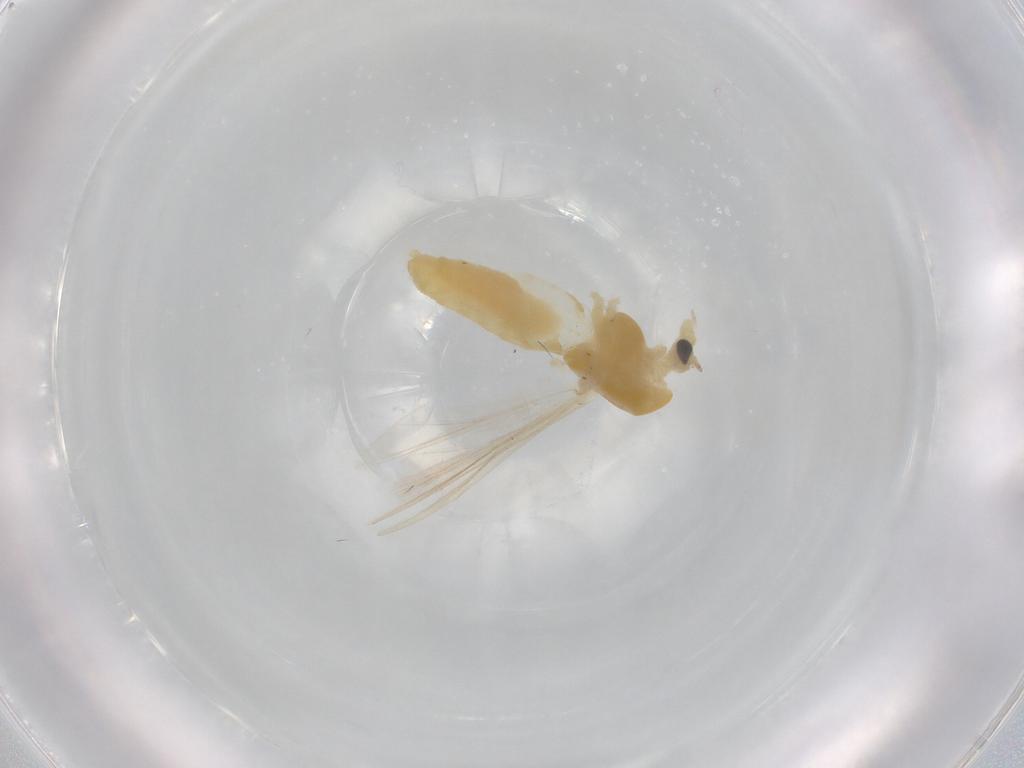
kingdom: Animalia
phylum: Arthropoda
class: Insecta
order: Diptera
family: Chironomidae
